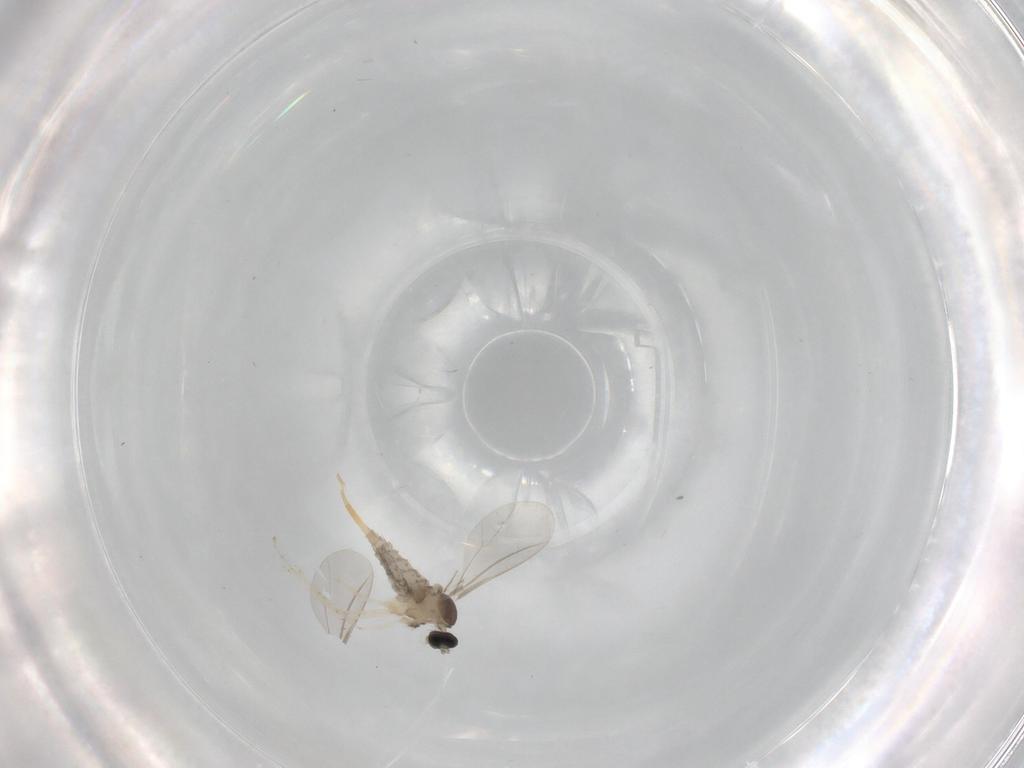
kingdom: Animalia
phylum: Arthropoda
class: Insecta
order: Diptera
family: Cecidomyiidae
